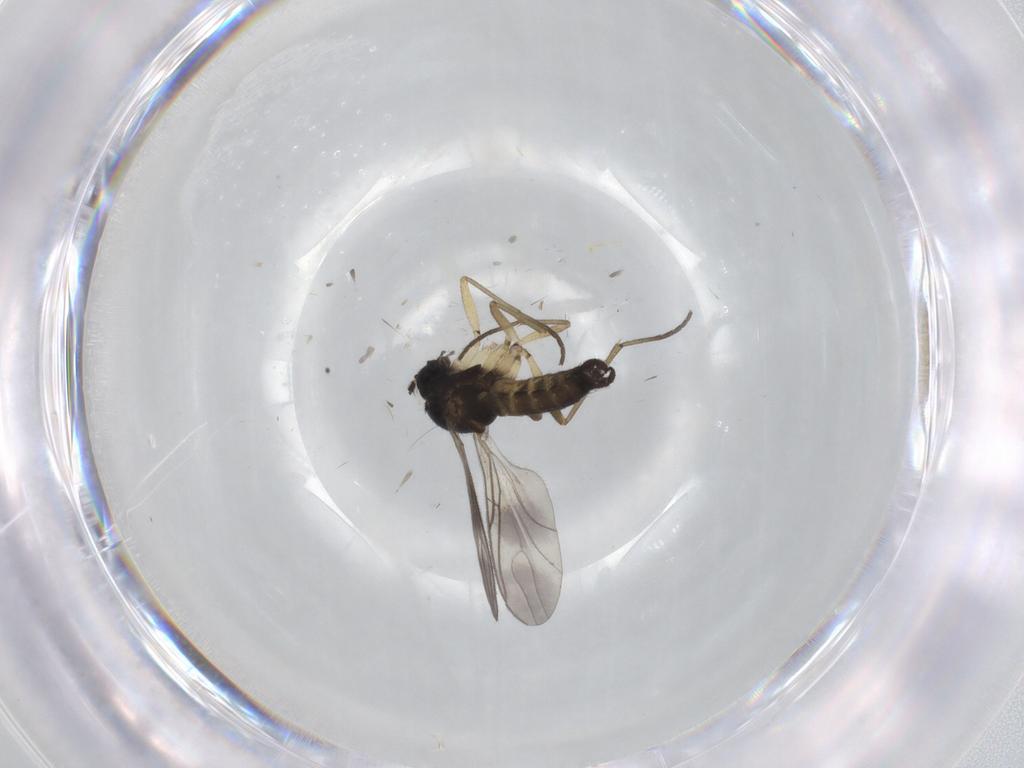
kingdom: Animalia
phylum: Arthropoda
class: Insecta
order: Diptera
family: Sciaridae
